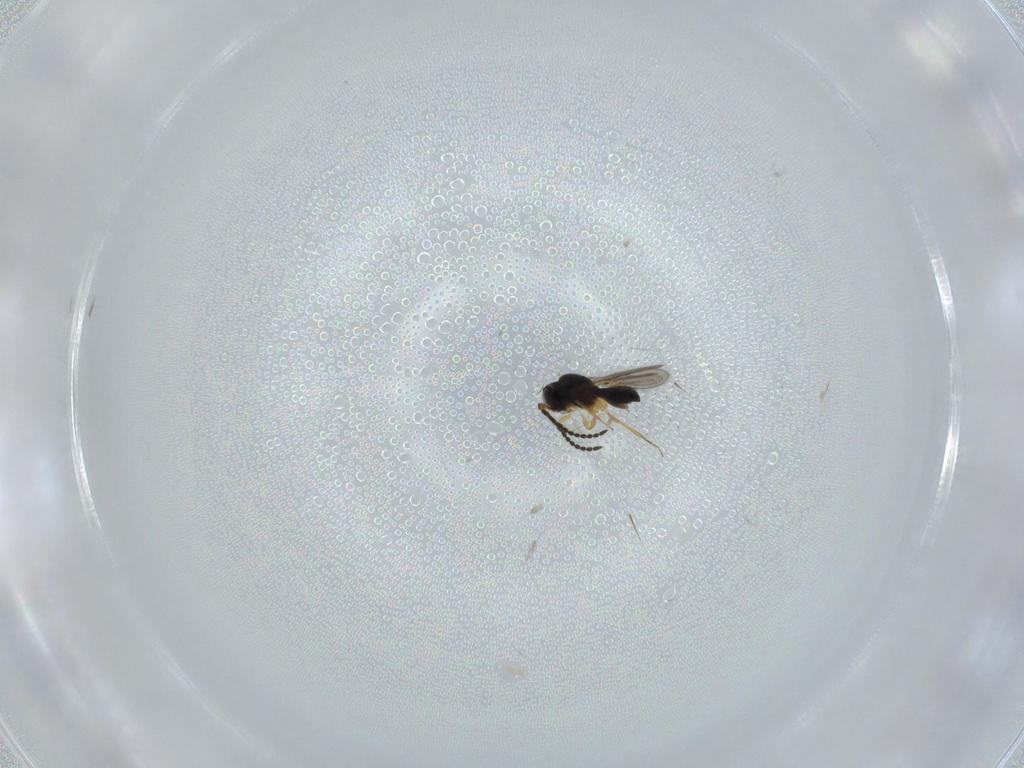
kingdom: Animalia
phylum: Arthropoda
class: Insecta
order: Hymenoptera
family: Scelionidae
